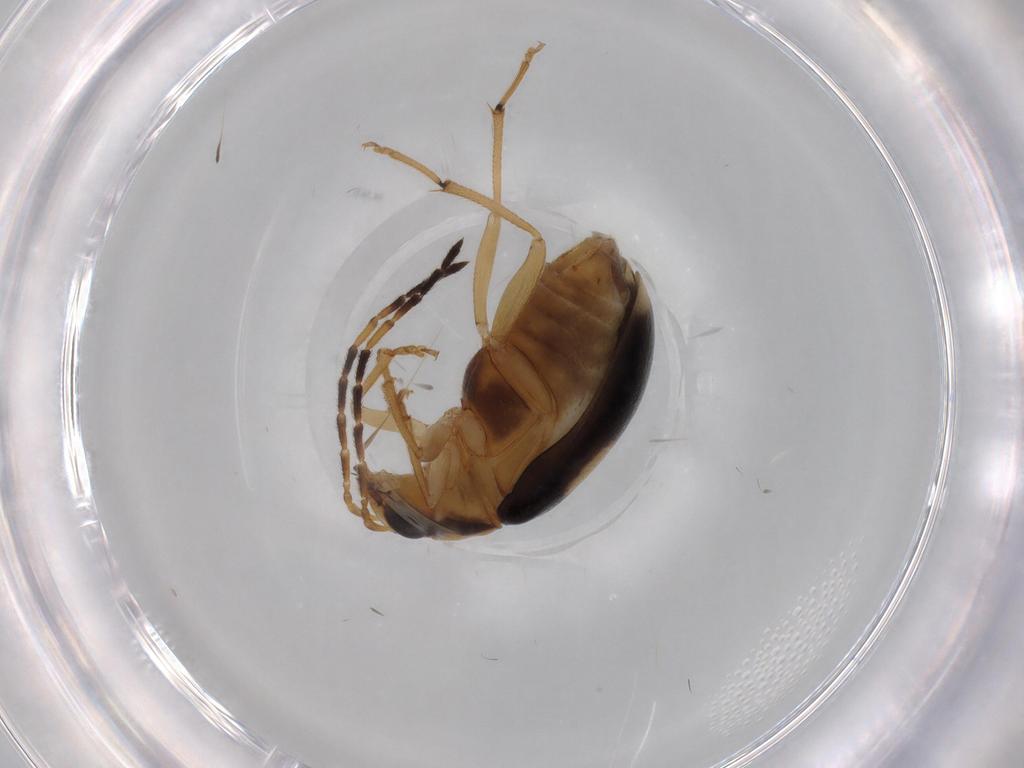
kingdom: Animalia
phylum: Arthropoda
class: Insecta
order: Coleoptera
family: Chrysomelidae
